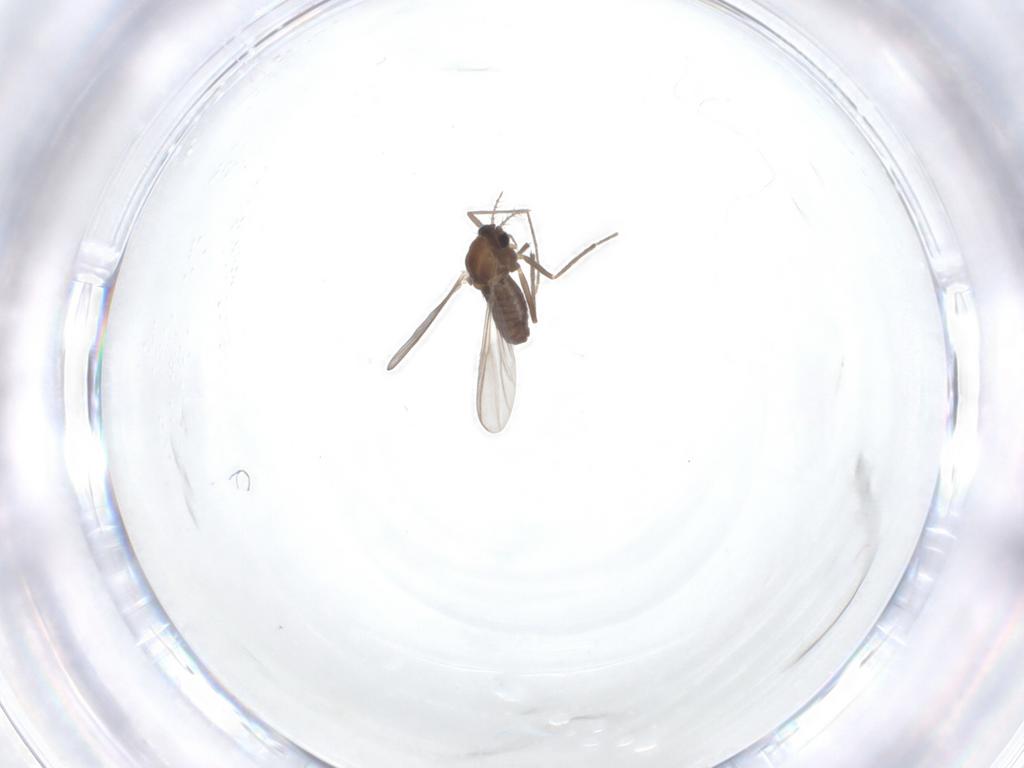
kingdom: Animalia
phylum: Arthropoda
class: Insecta
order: Diptera
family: Chironomidae
